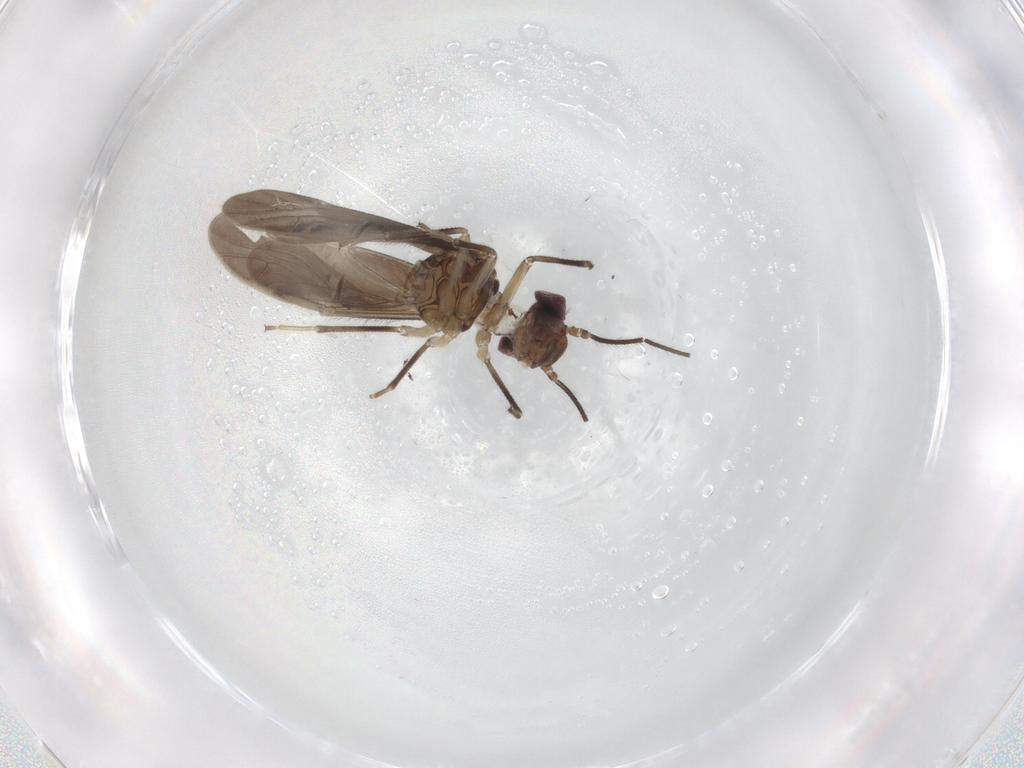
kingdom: Animalia
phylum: Arthropoda
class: Insecta
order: Psocodea
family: Caeciliusidae
